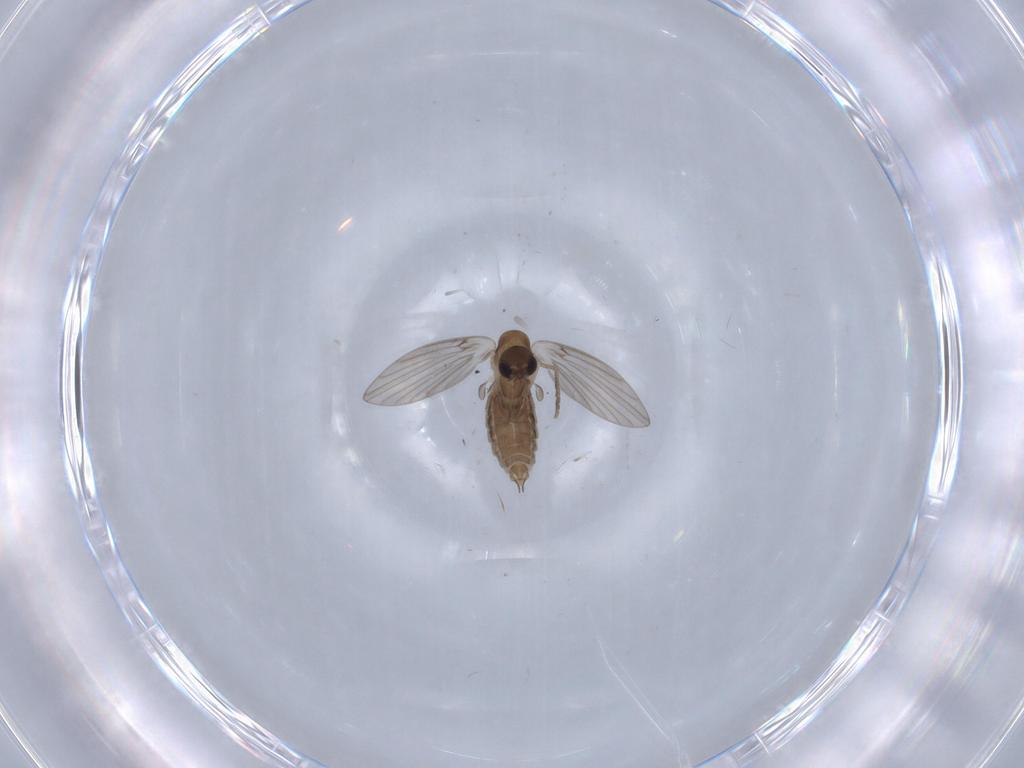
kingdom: Animalia
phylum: Arthropoda
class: Insecta
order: Diptera
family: Psychodidae
